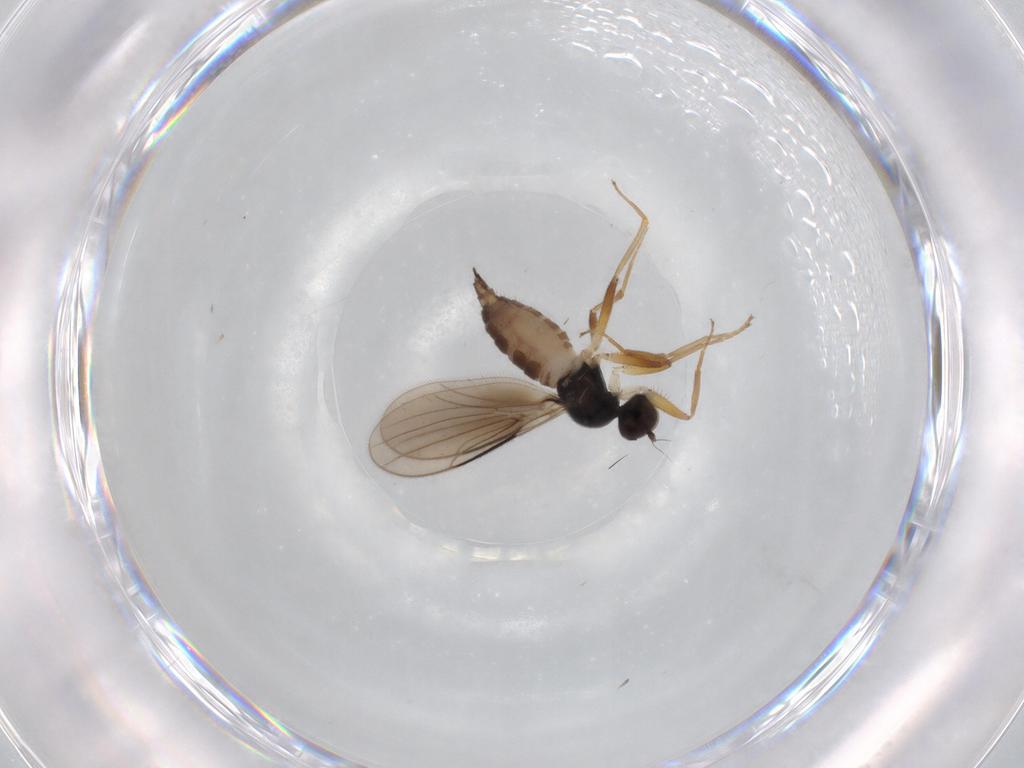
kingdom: Animalia
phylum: Arthropoda
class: Insecta
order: Diptera
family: Hybotidae
